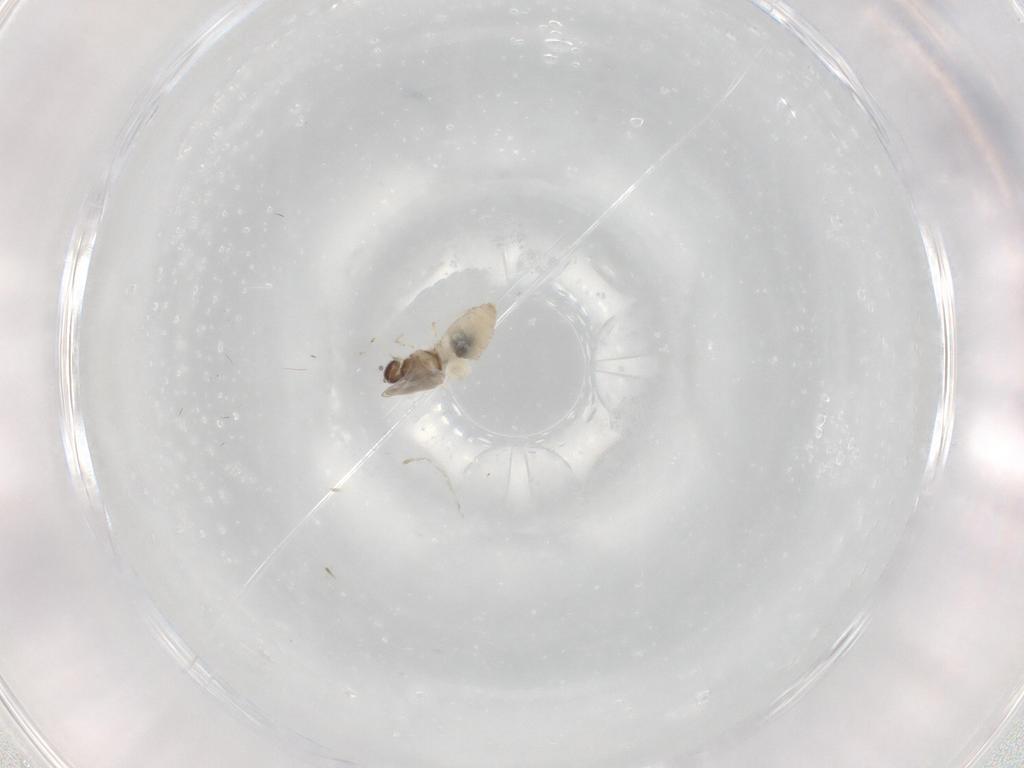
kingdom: Animalia
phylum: Arthropoda
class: Insecta
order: Diptera
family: Cecidomyiidae
